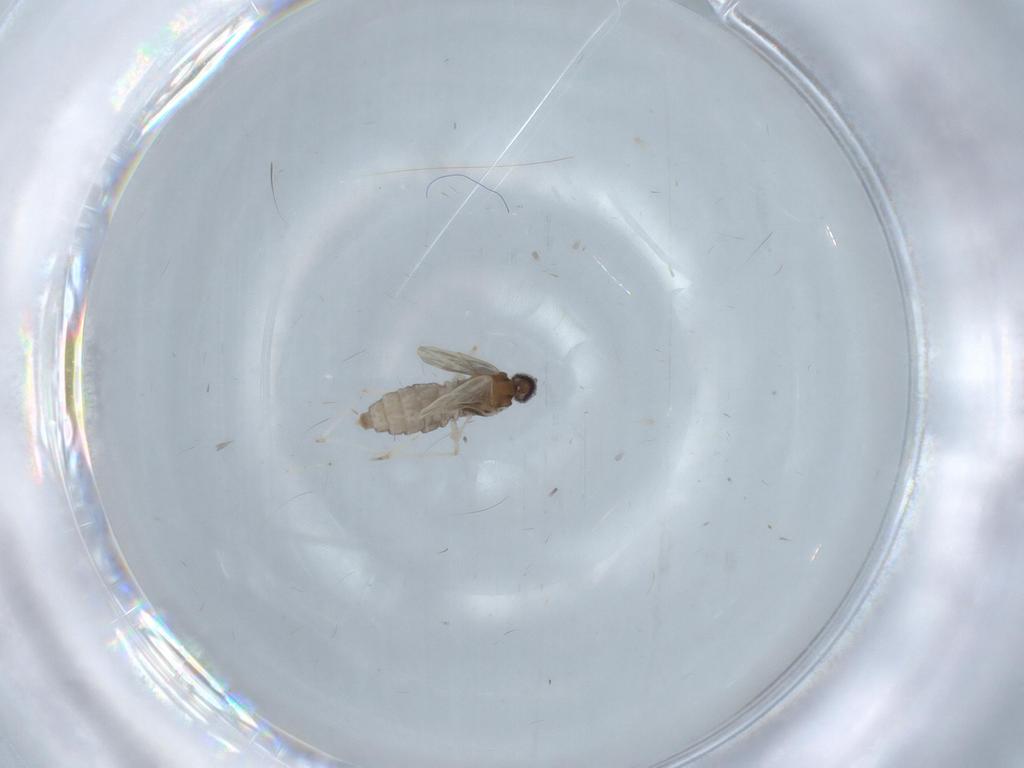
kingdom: Animalia
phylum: Arthropoda
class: Insecta
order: Diptera
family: Cecidomyiidae
